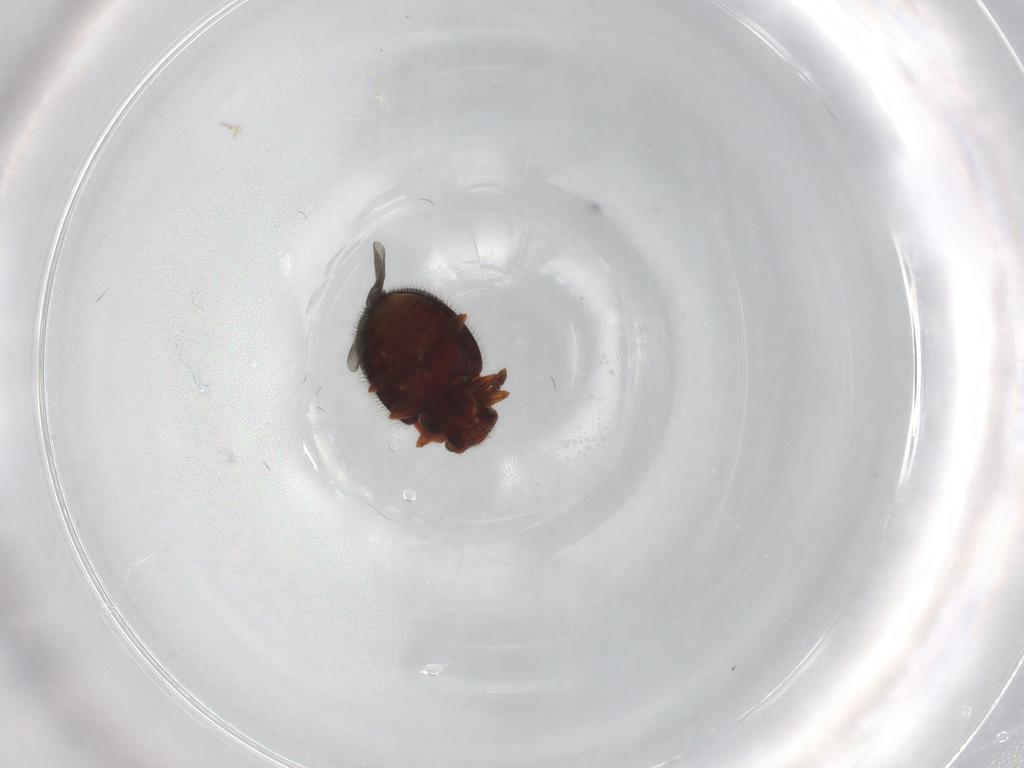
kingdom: Animalia
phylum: Arthropoda
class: Insecta
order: Coleoptera
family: Sphindidae
